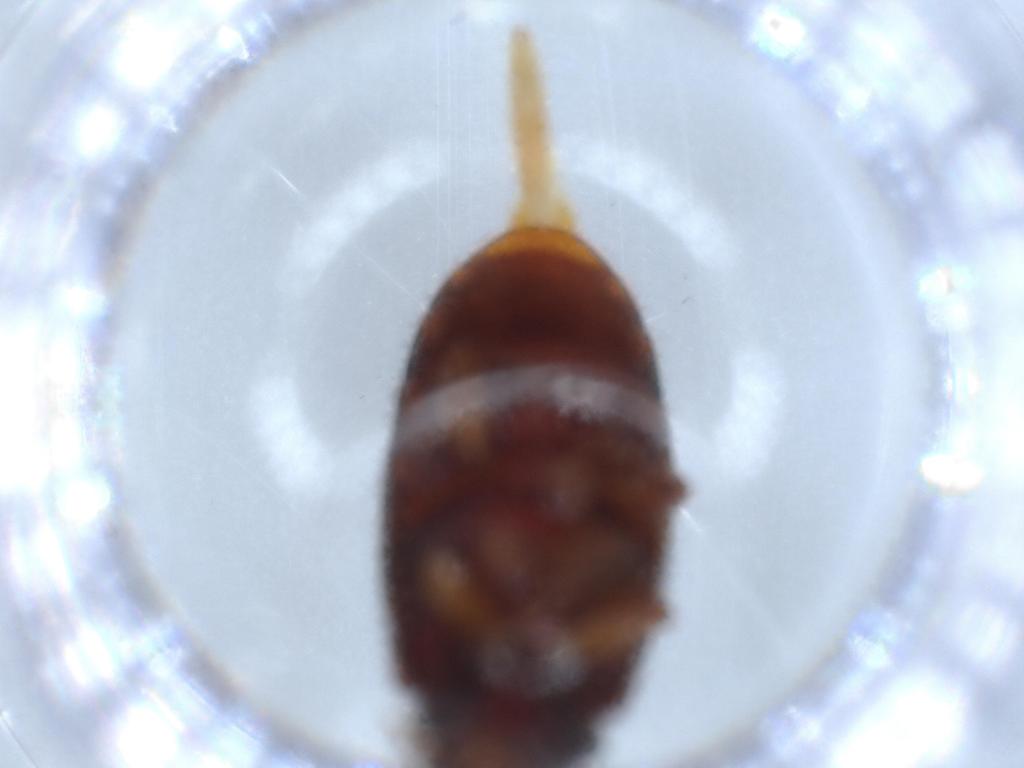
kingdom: Animalia
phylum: Arthropoda
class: Insecta
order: Coleoptera
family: Mycteridae
